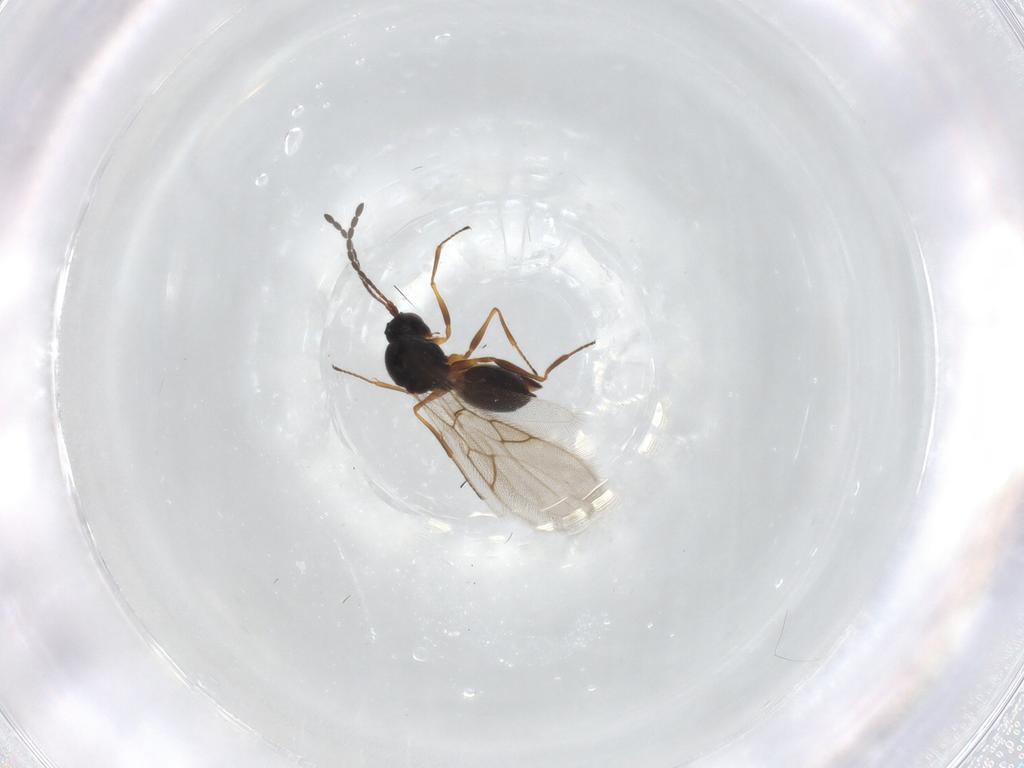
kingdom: Animalia
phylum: Arthropoda
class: Insecta
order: Hymenoptera
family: Figitidae
